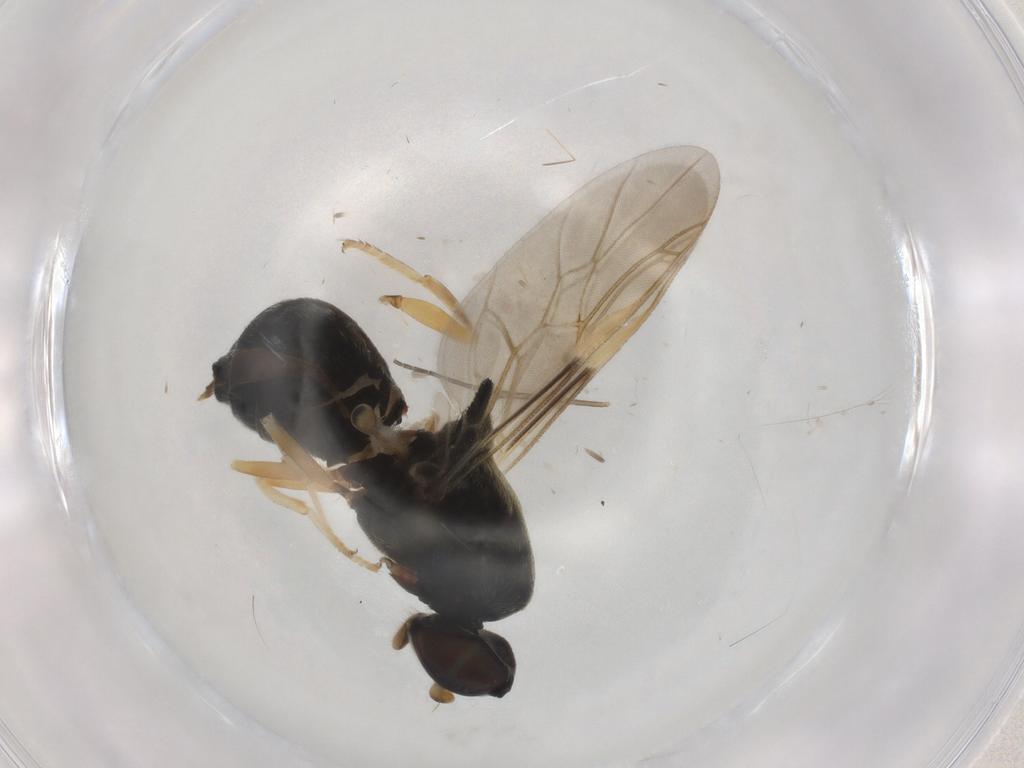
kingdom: Animalia
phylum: Arthropoda
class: Insecta
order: Diptera
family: Stratiomyidae
